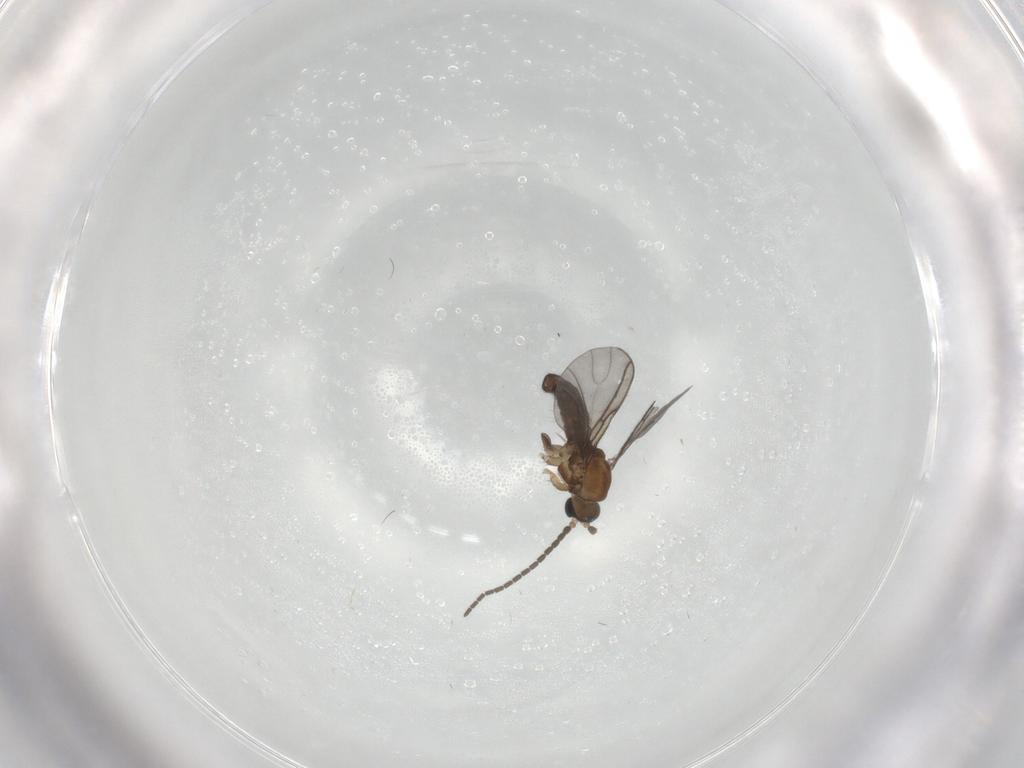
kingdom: Animalia
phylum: Arthropoda
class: Insecta
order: Diptera
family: Sciaridae
